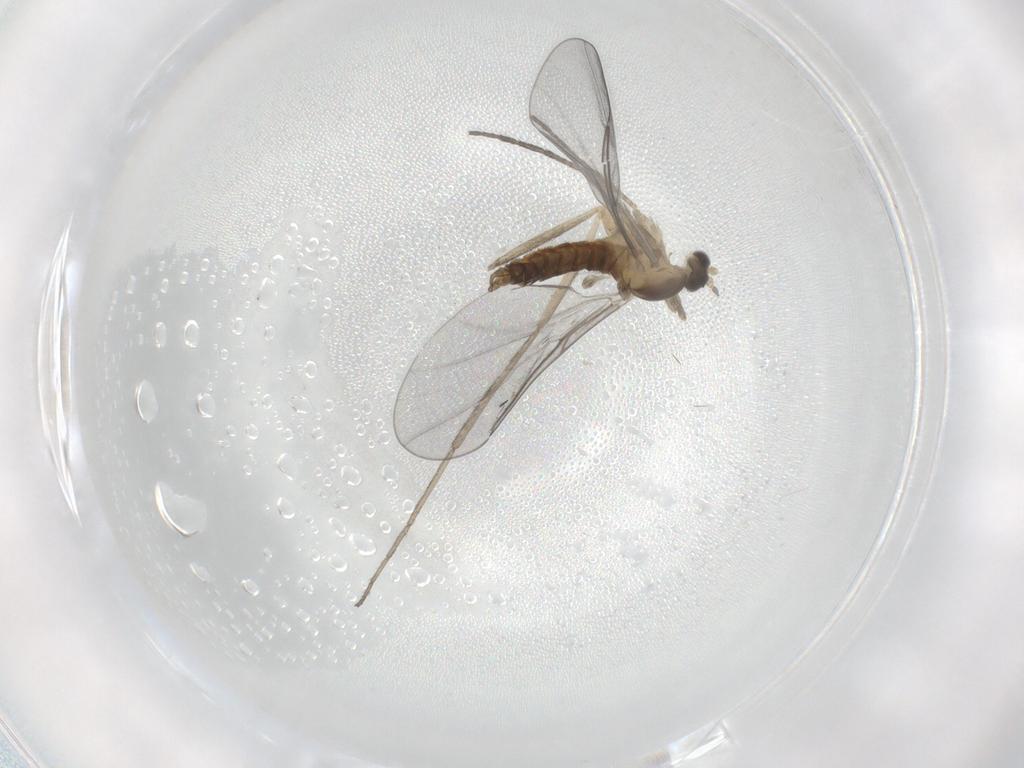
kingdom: Animalia
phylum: Arthropoda
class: Insecta
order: Diptera
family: Cecidomyiidae
